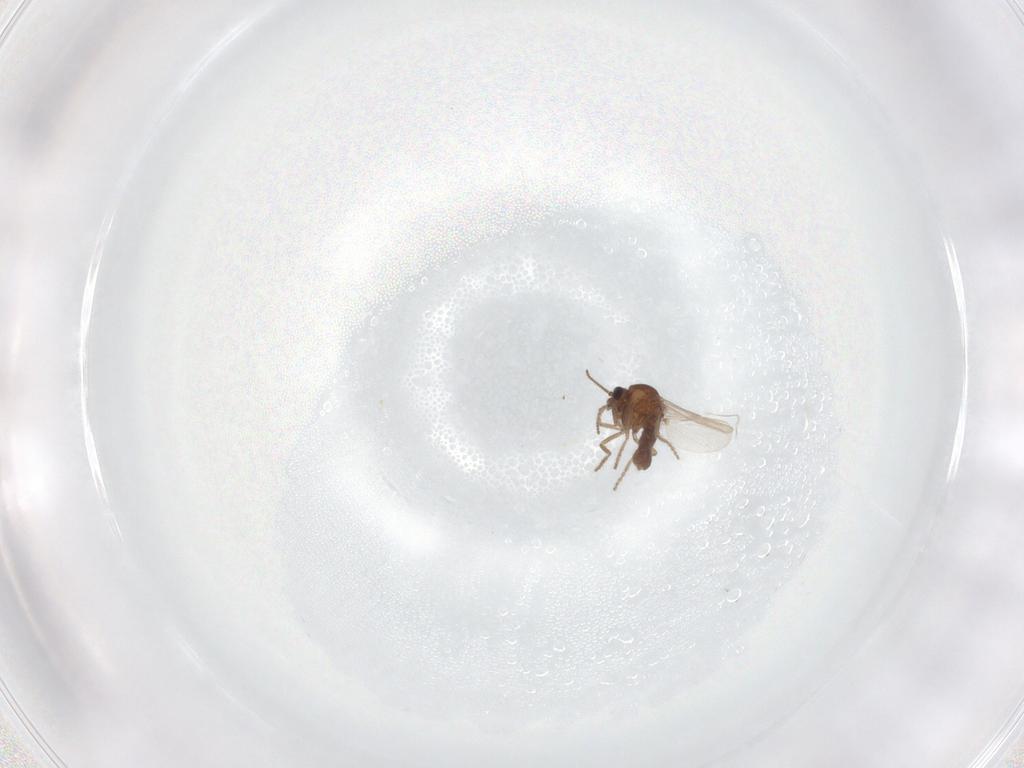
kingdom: Animalia
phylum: Arthropoda
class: Insecta
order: Diptera
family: Ceratopogonidae
